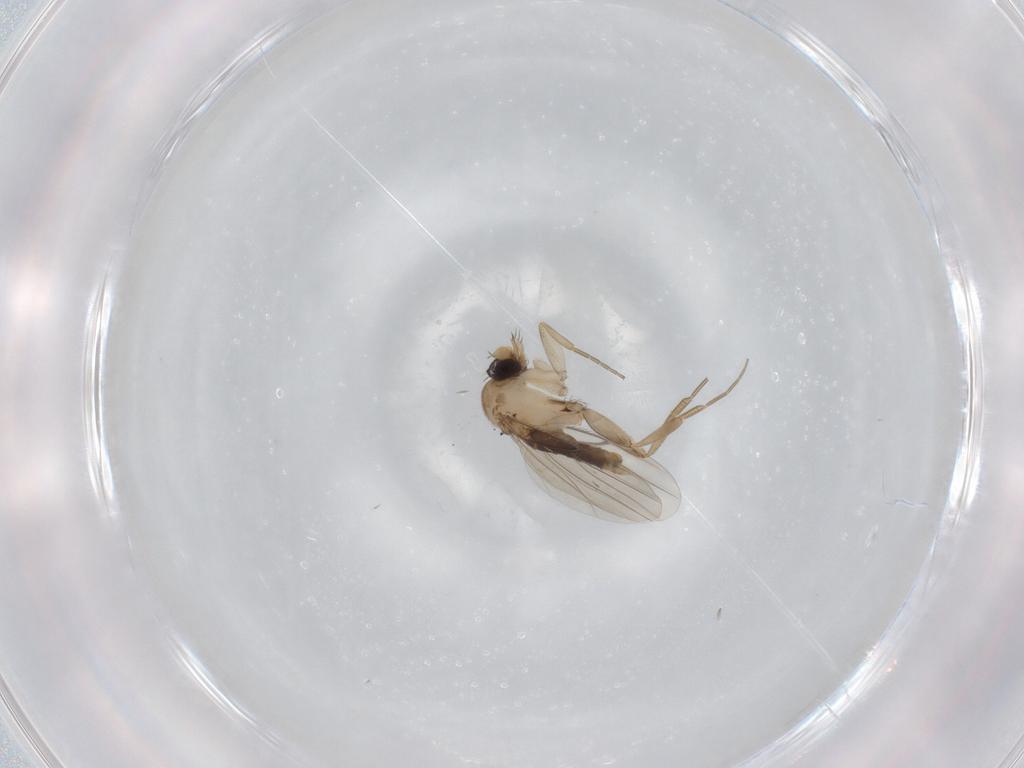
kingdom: Animalia
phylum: Arthropoda
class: Insecta
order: Diptera
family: Phoridae
